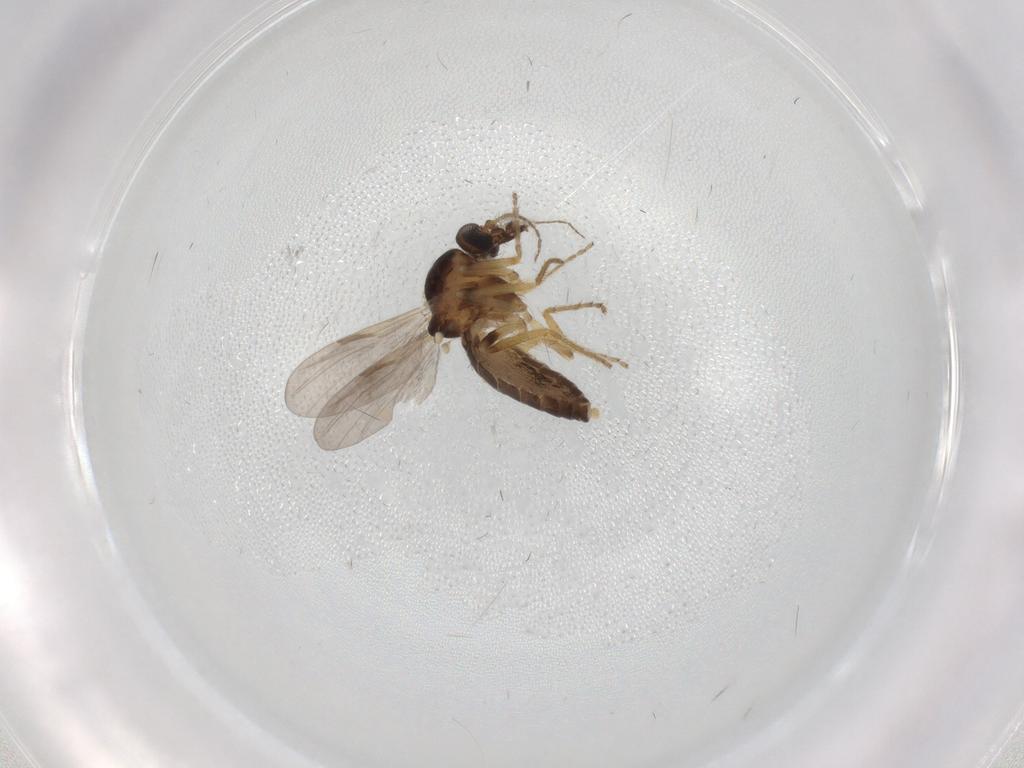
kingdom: Animalia
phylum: Arthropoda
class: Insecta
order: Diptera
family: Ceratopogonidae
